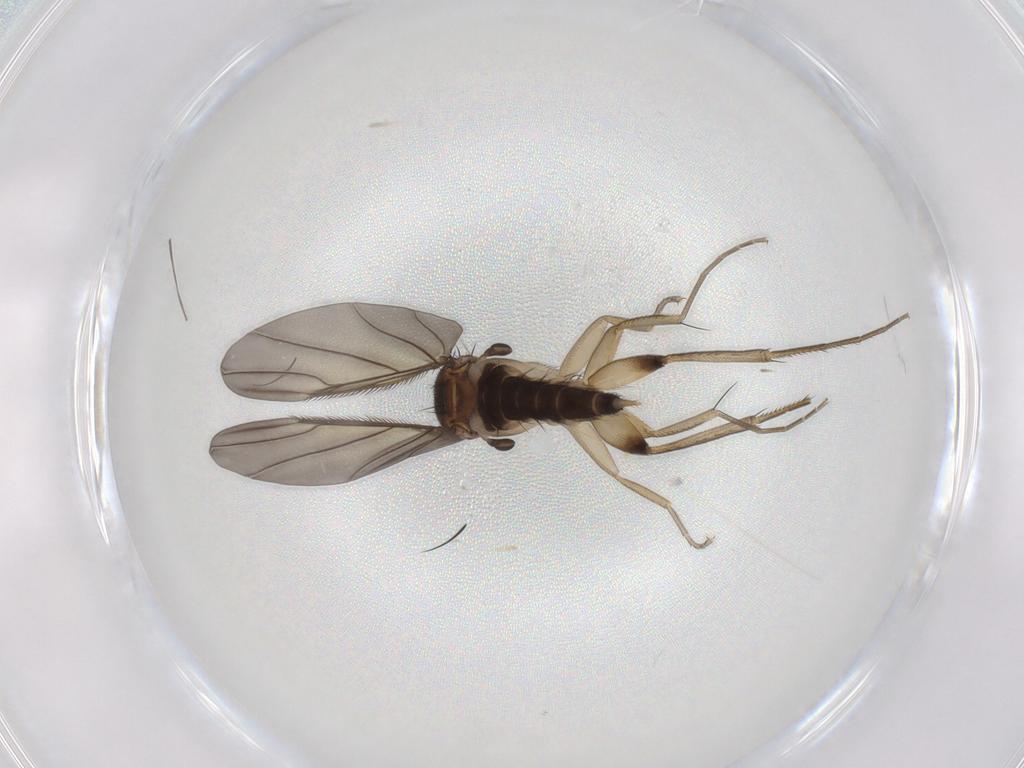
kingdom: Animalia
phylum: Arthropoda
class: Insecta
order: Diptera
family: Phoridae
